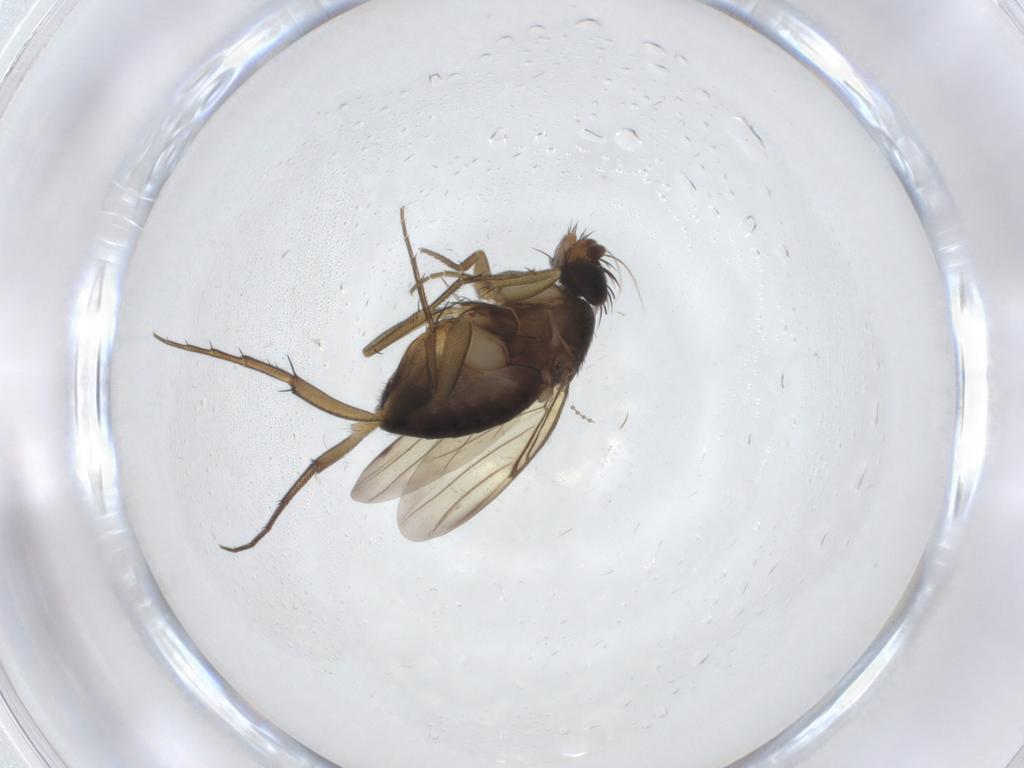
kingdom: Animalia
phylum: Arthropoda
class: Insecta
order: Diptera
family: Phoridae
